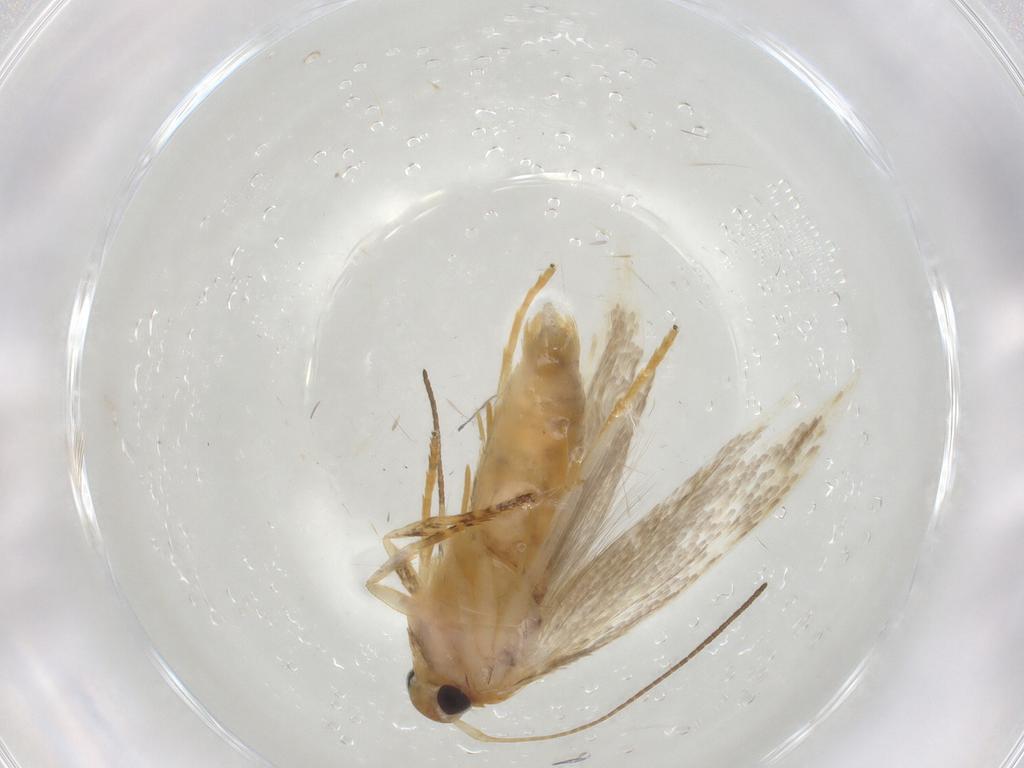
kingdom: Animalia
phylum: Arthropoda
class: Insecta
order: Lepidoptera
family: Oecophoridae
